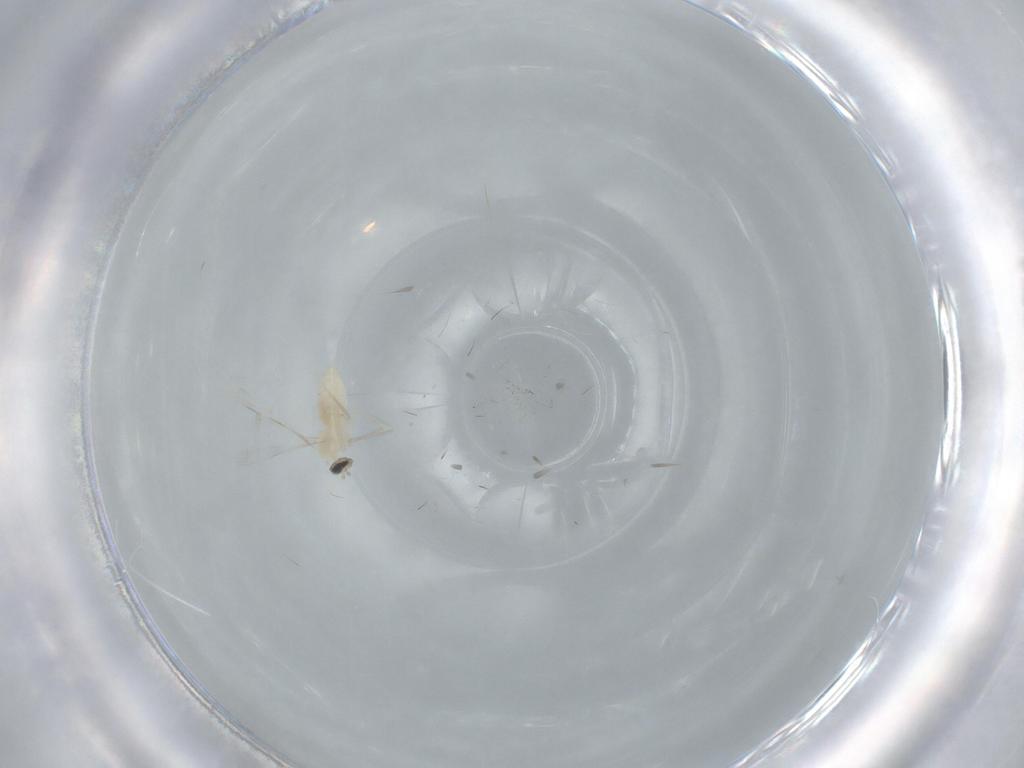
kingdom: Animalia
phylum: Arthropoda
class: Insecta
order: Diptera
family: Cecidomyiidae
